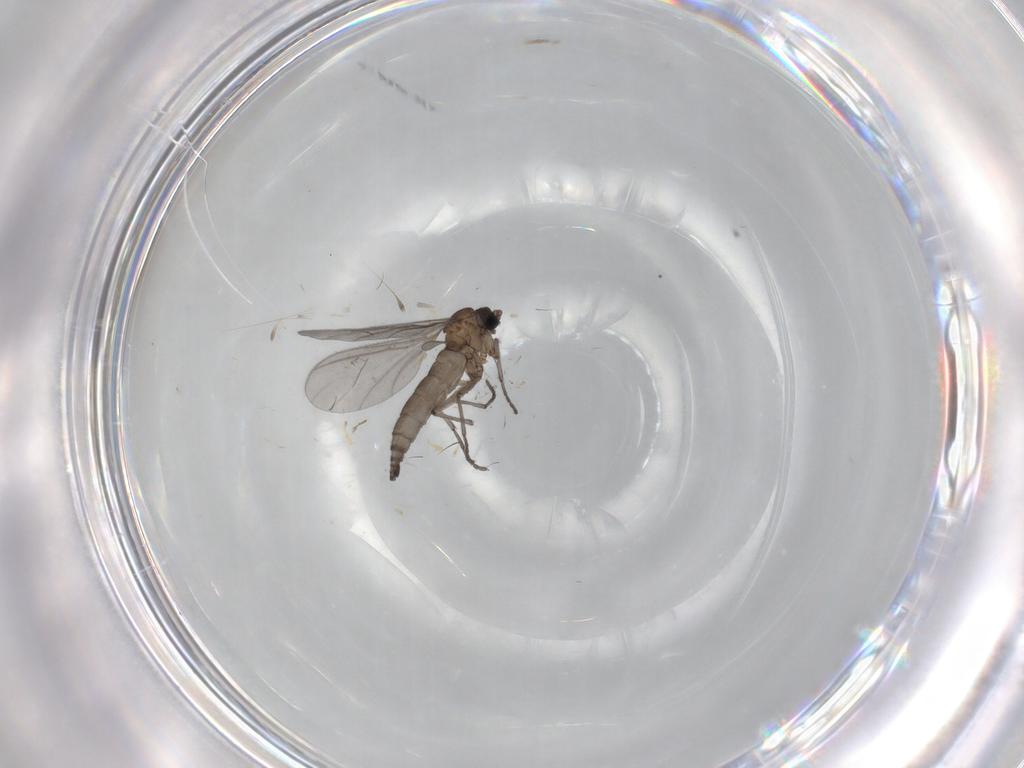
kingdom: Animalia
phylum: Arthropoda
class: Insecta
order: Diptera
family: Sciaridae
